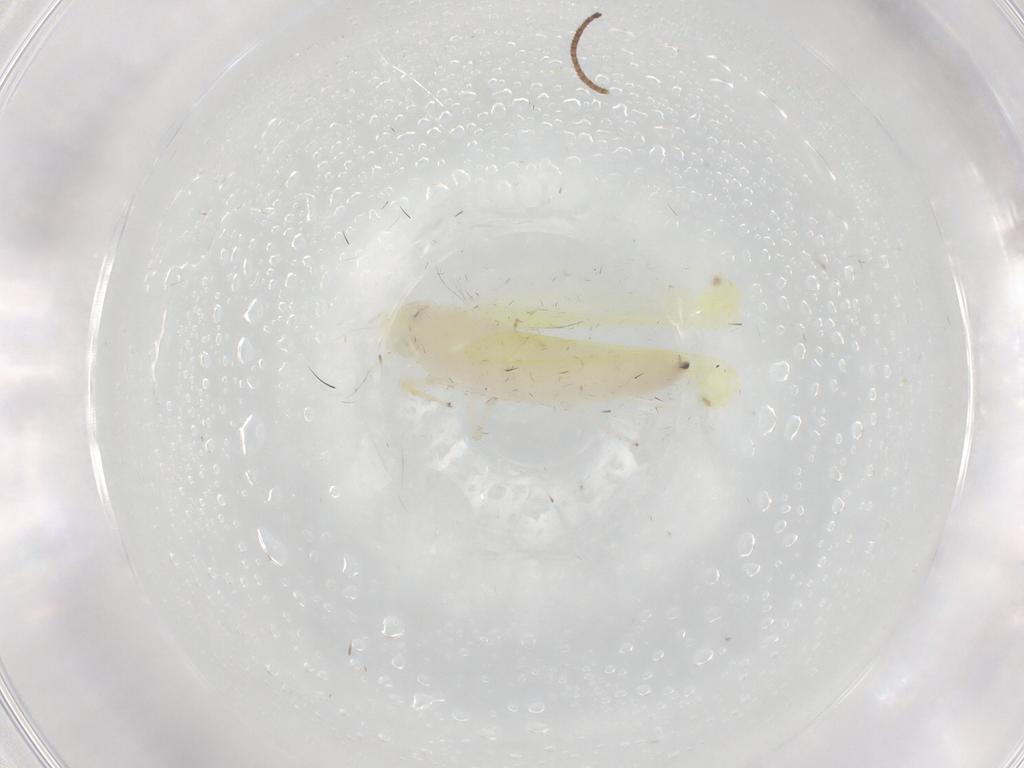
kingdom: Animalia
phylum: Arthropoda
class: Insecta
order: Hemiptera
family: Cicadellidae
